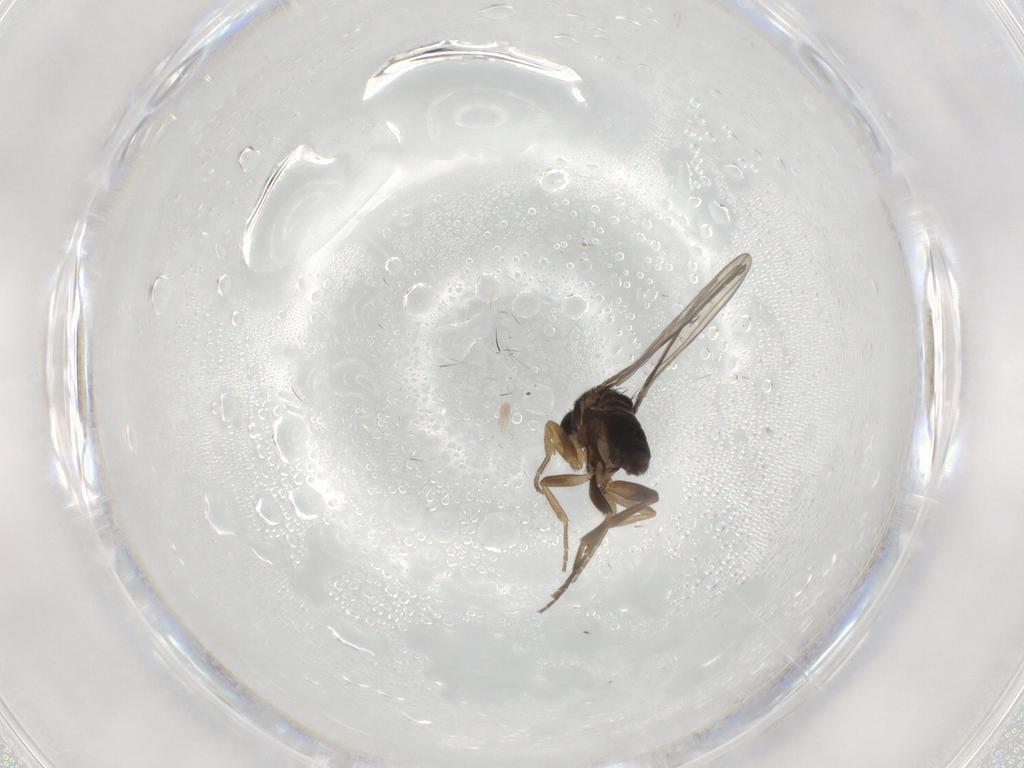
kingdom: Animalia
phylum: Arthropoda
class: Insecta
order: Diptera
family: Phoridae
